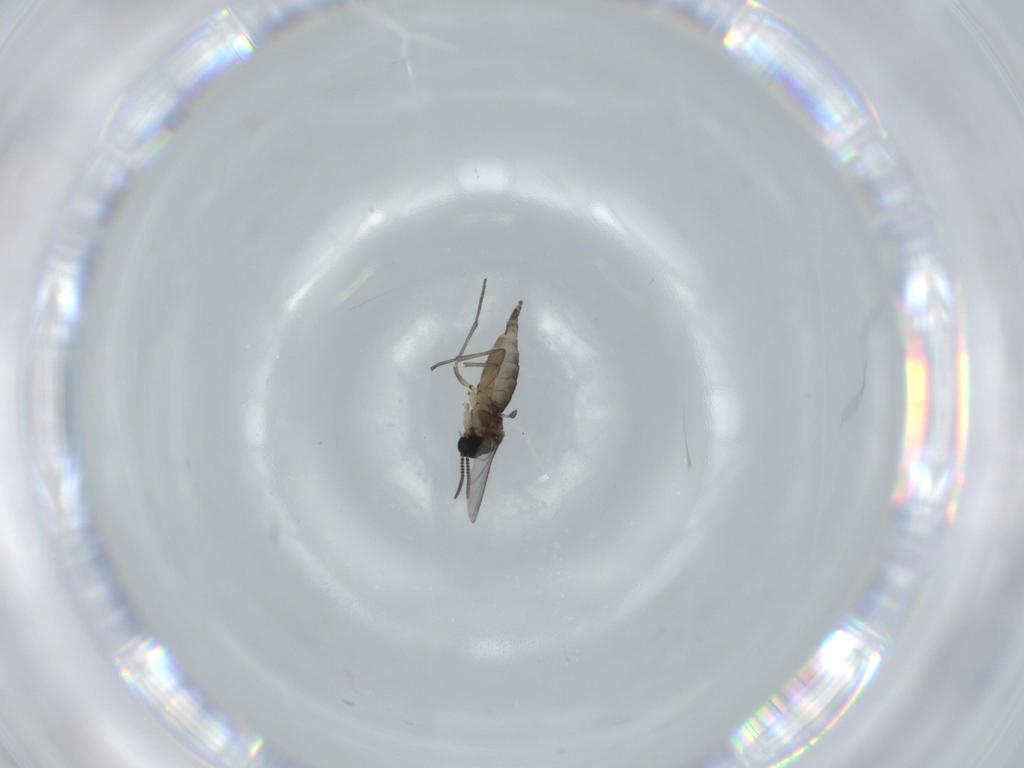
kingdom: Animalia
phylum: Arthropoda
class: Insecta
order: Diptera
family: Sciaridae
